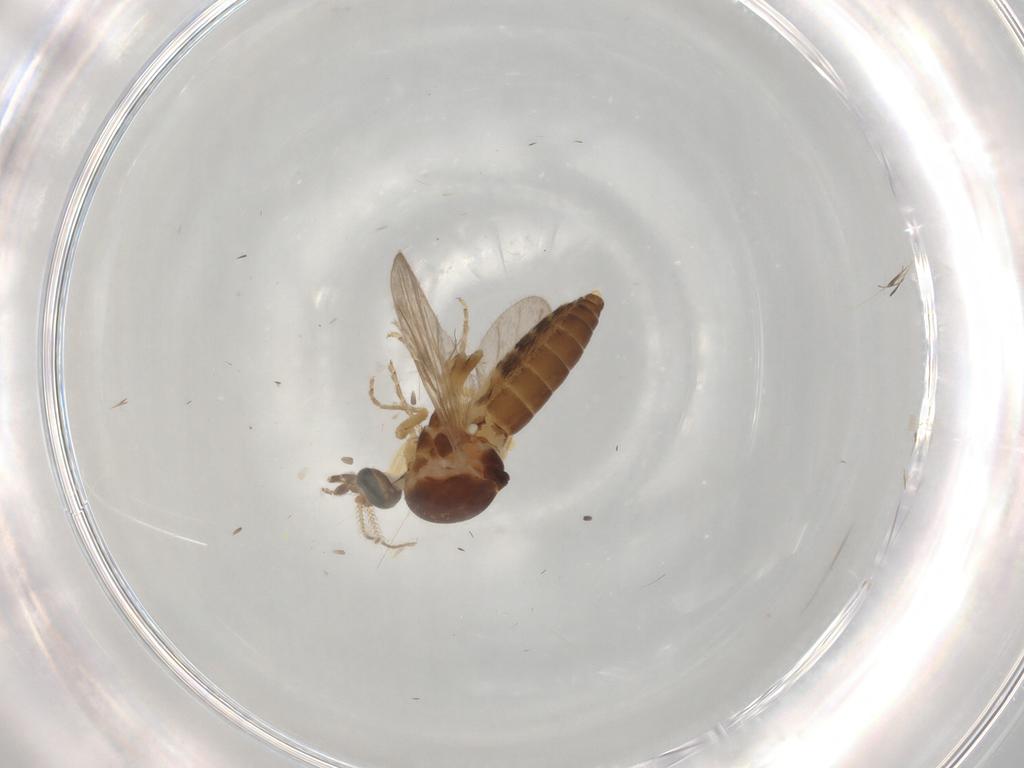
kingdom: Animalia
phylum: Arthropoda
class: Insecta
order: Diptera
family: Ceratopogonidae
